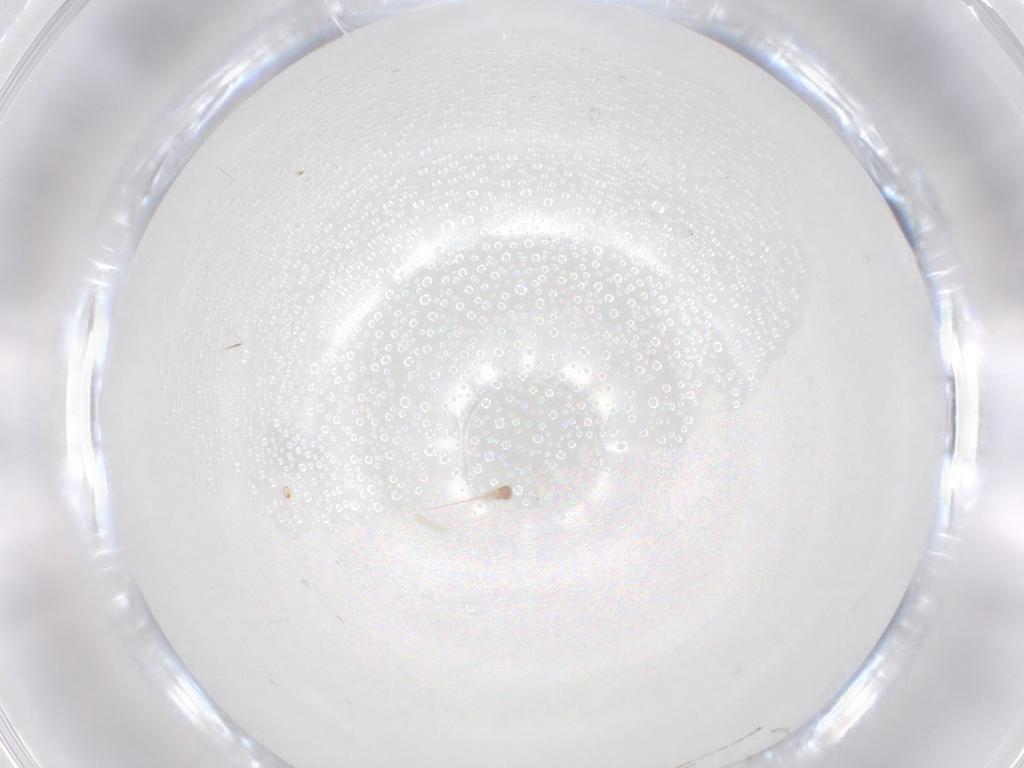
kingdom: Animalia
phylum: Arthropoda
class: Insecta
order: Diptera
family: Cecidomyiidae
